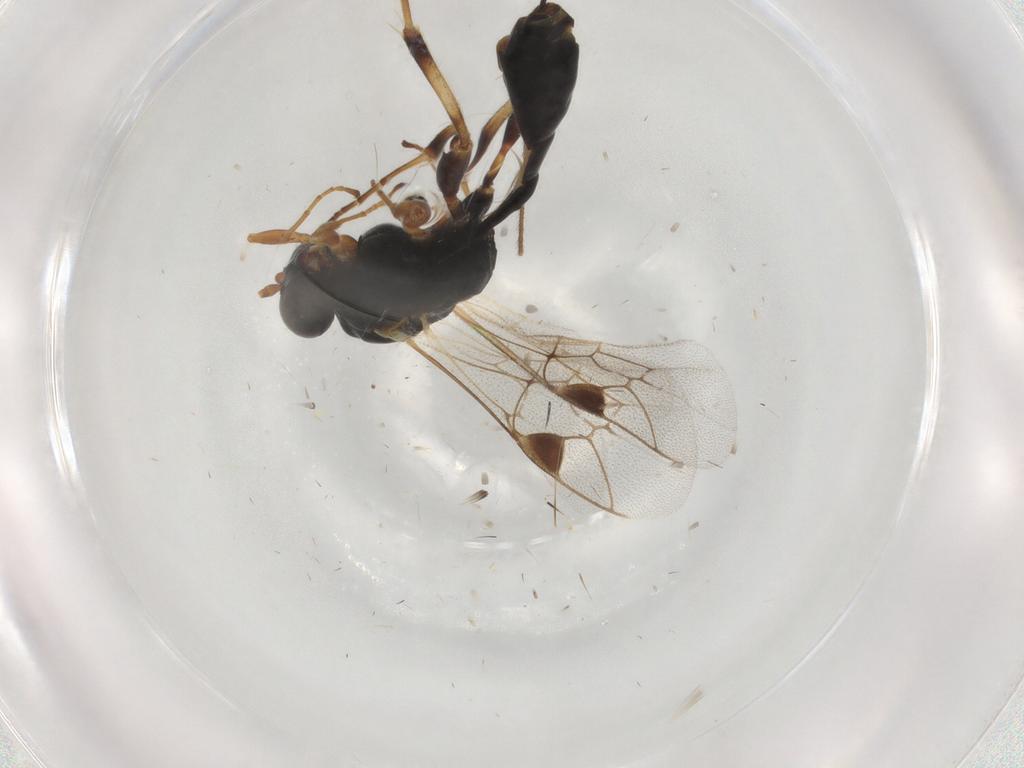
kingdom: Animalia
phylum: Arthropoda
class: Insecta
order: Hymenoptera
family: Ichneumonidae
